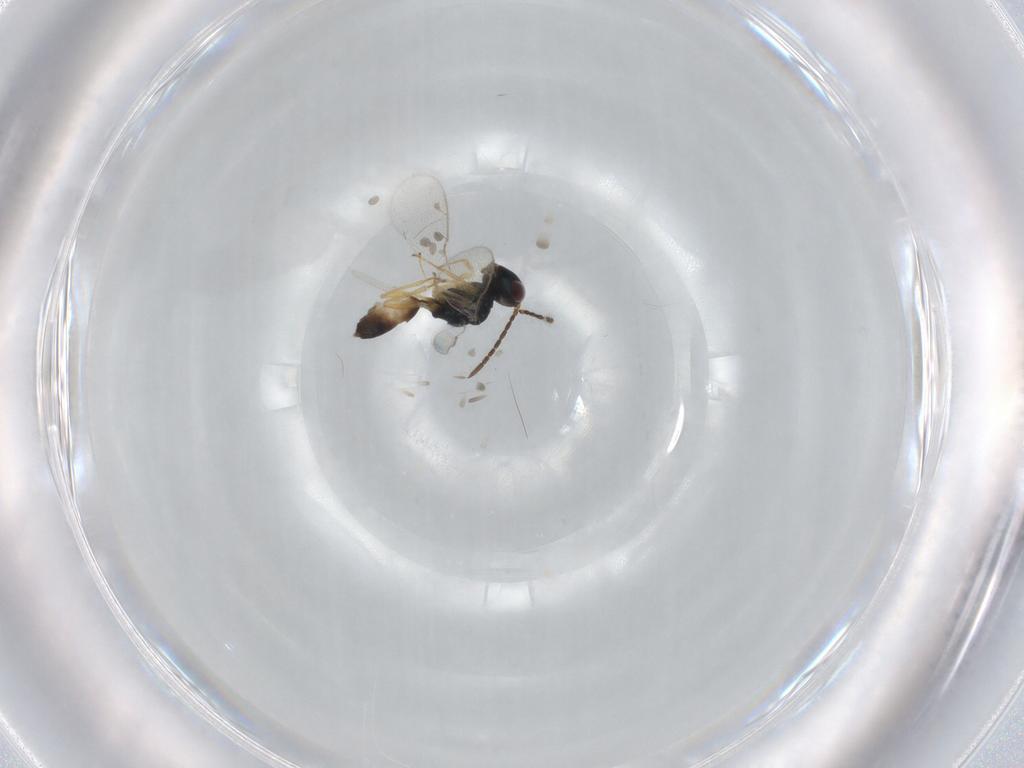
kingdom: Animalia
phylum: Arthropoda
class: Insecta
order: Hymenoptera
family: Pteromalidae
